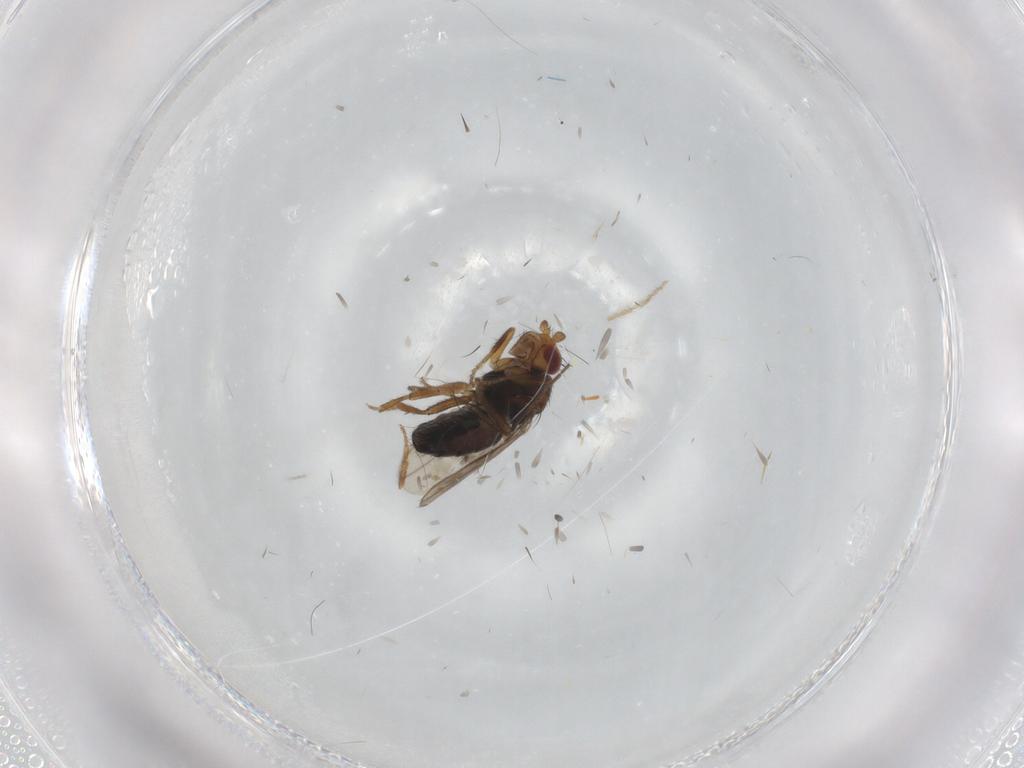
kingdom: Animalia
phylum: Arthropoda
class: Insecta
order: Diptera
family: Sphaeroceridae
